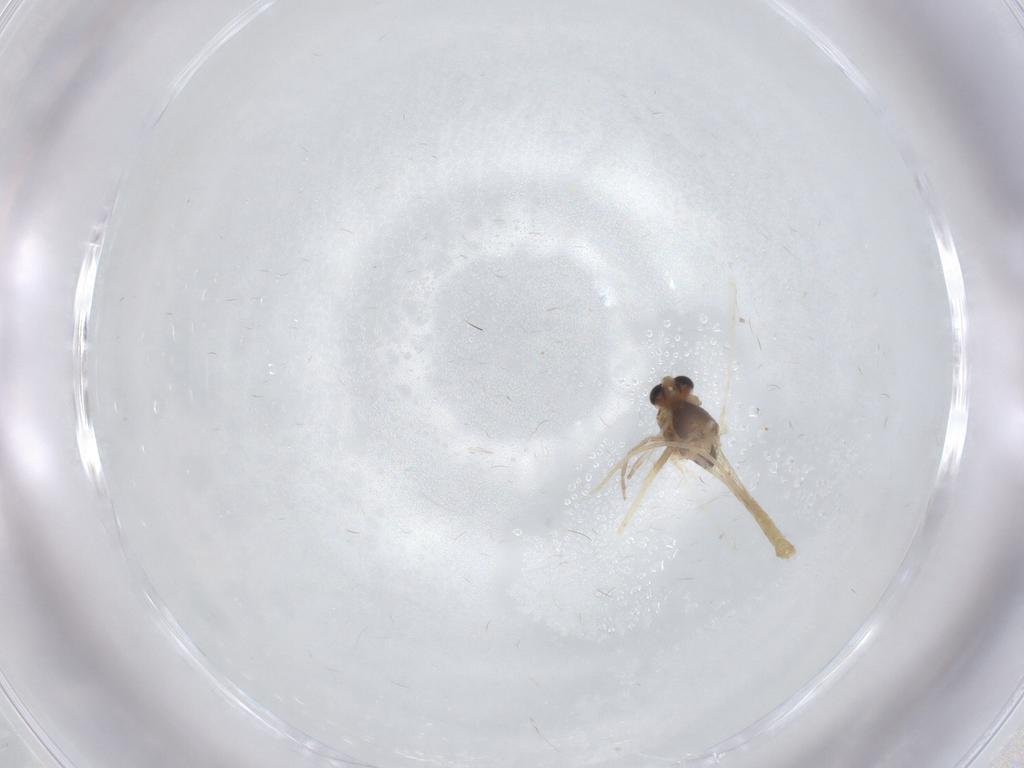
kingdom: Animalia
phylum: Arthropoda
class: Insecta
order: Diptera
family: Chironomidae
